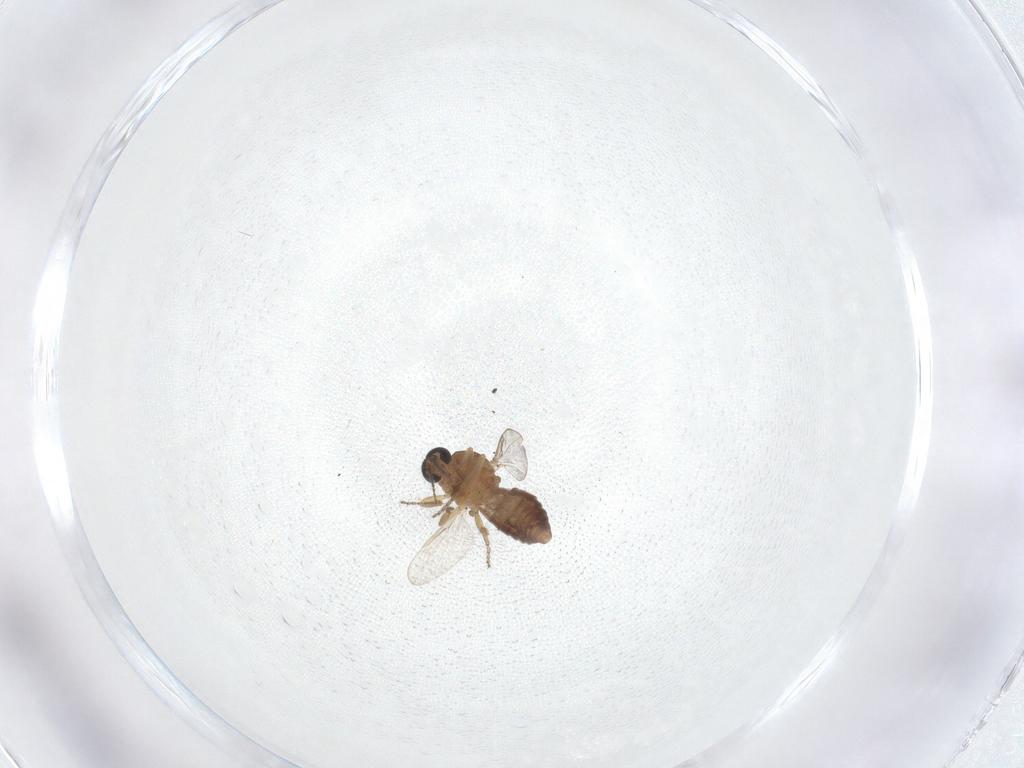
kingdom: Animalia
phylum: Arthropoda
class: Insecta
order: Diptera
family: Ceratopogonidae
